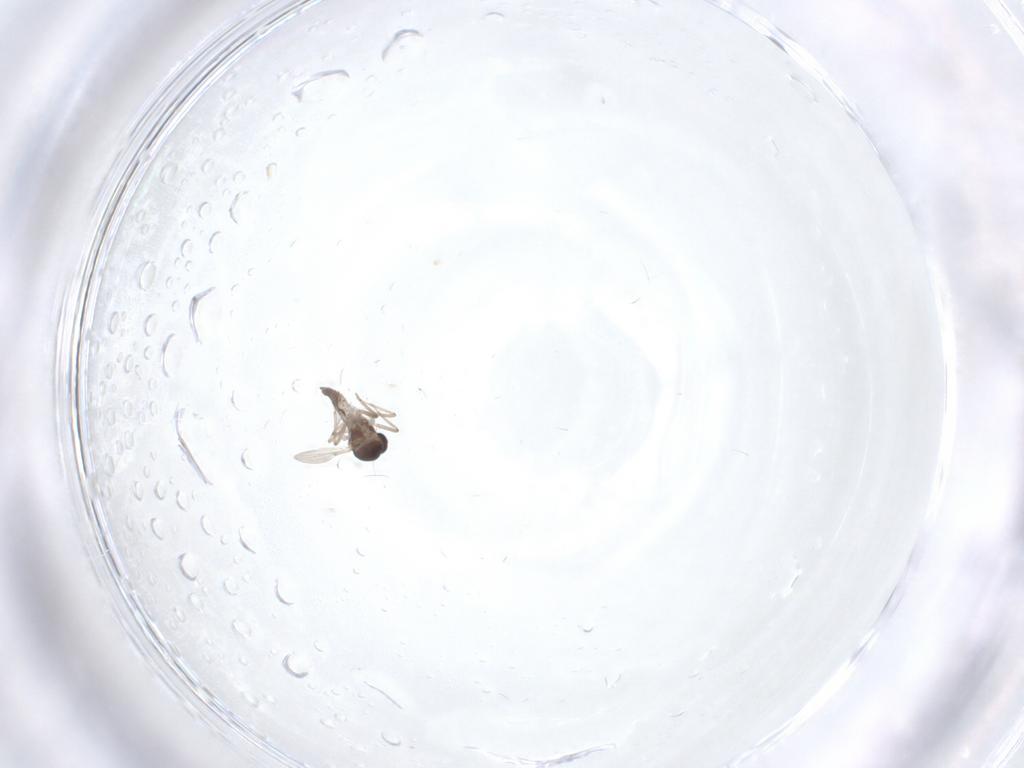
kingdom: Animalia
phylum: Arthropoda
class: Insecta
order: Diptera
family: Ceratopogonidae
